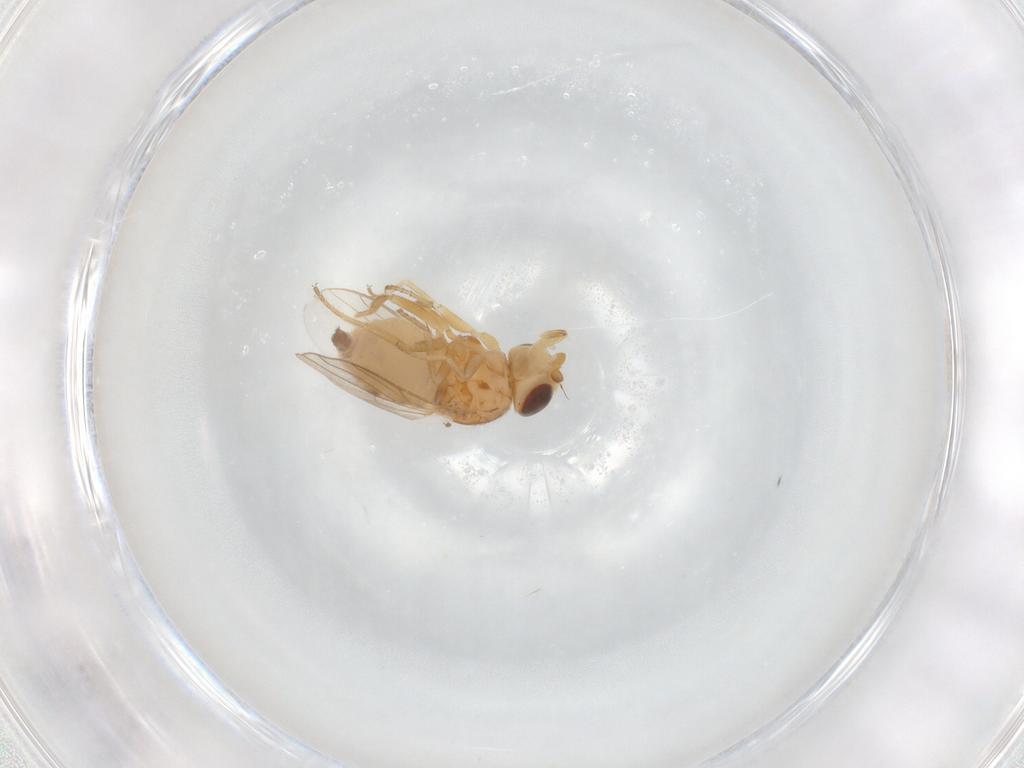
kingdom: Animalia
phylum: Arthropoda
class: Insecta
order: Diptera
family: Chloropidae
